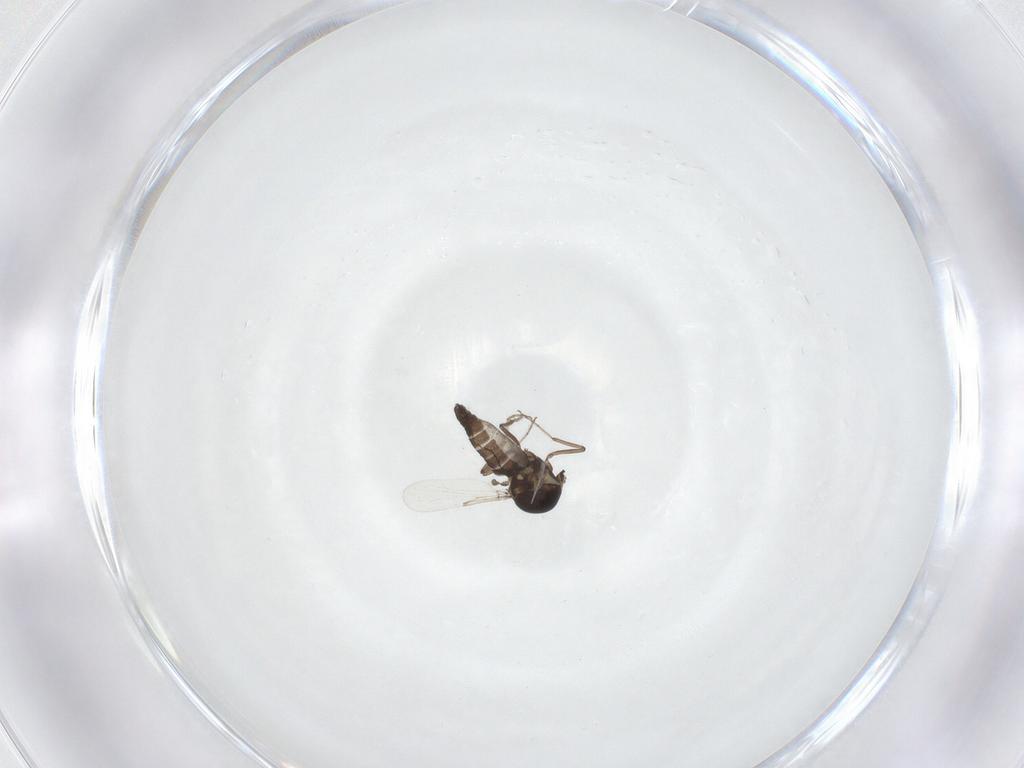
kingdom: Animalia
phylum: Arthropoda
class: Insecta
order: Diptera
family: Ceratopogonidae
